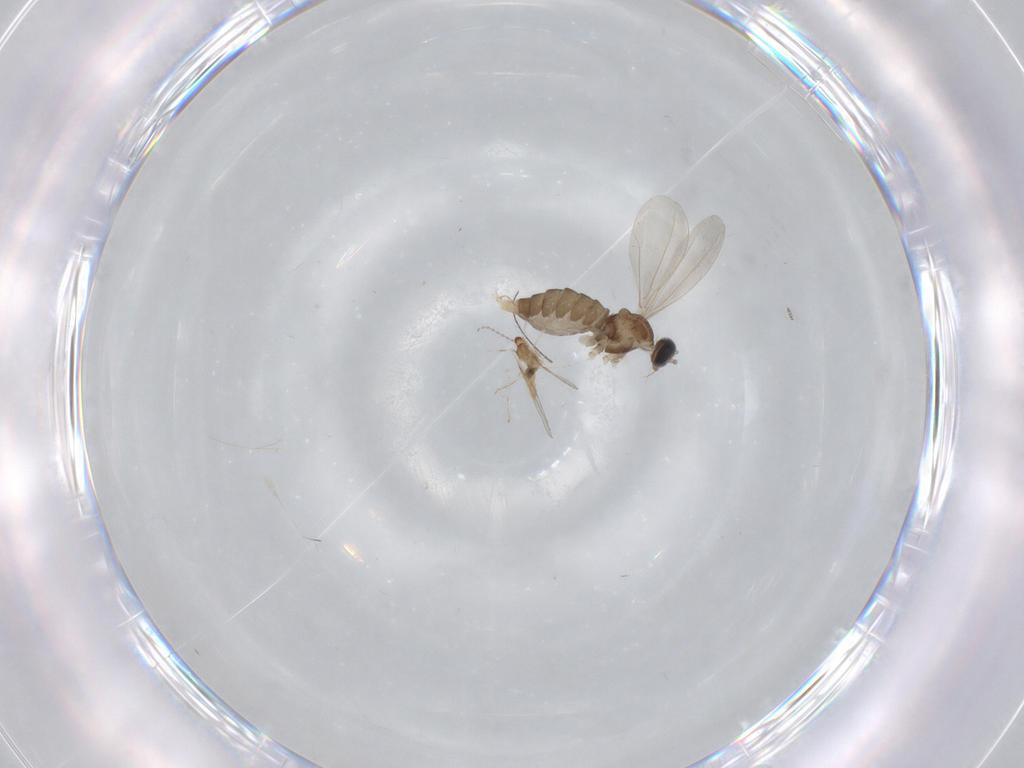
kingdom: Animalia
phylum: Arthropoda
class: Insecta
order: Diptera
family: Cecidomyiidae
